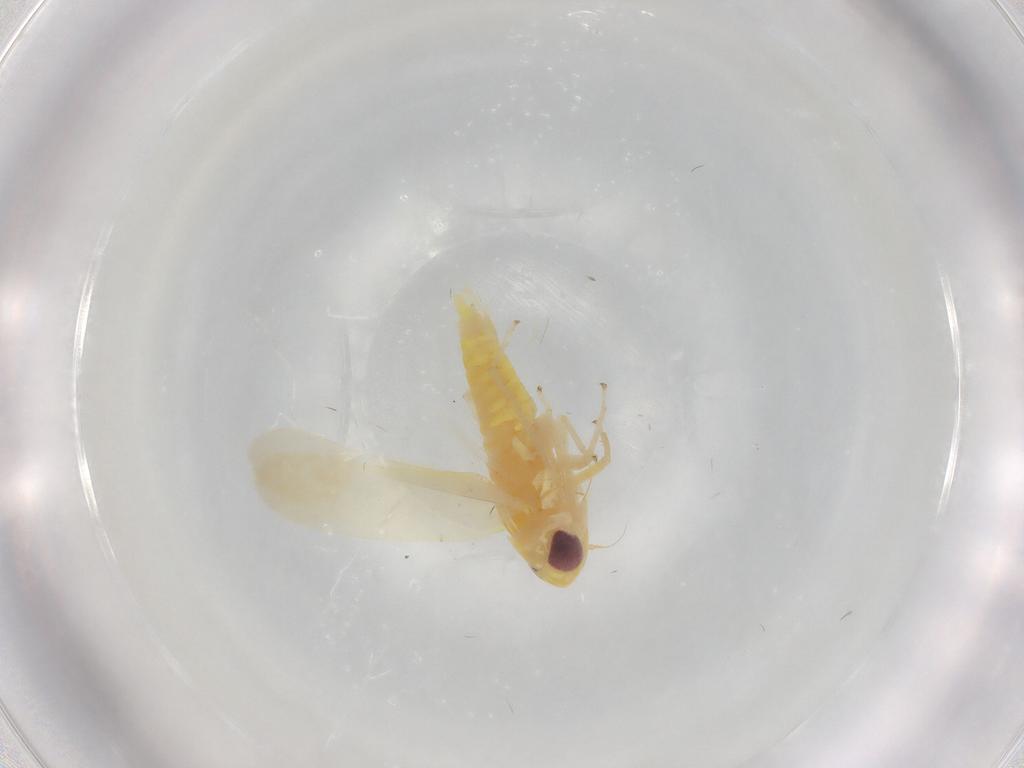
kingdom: Animalia
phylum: Arthropoda
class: Insecta
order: Hemiptera
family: Cicadellidae
